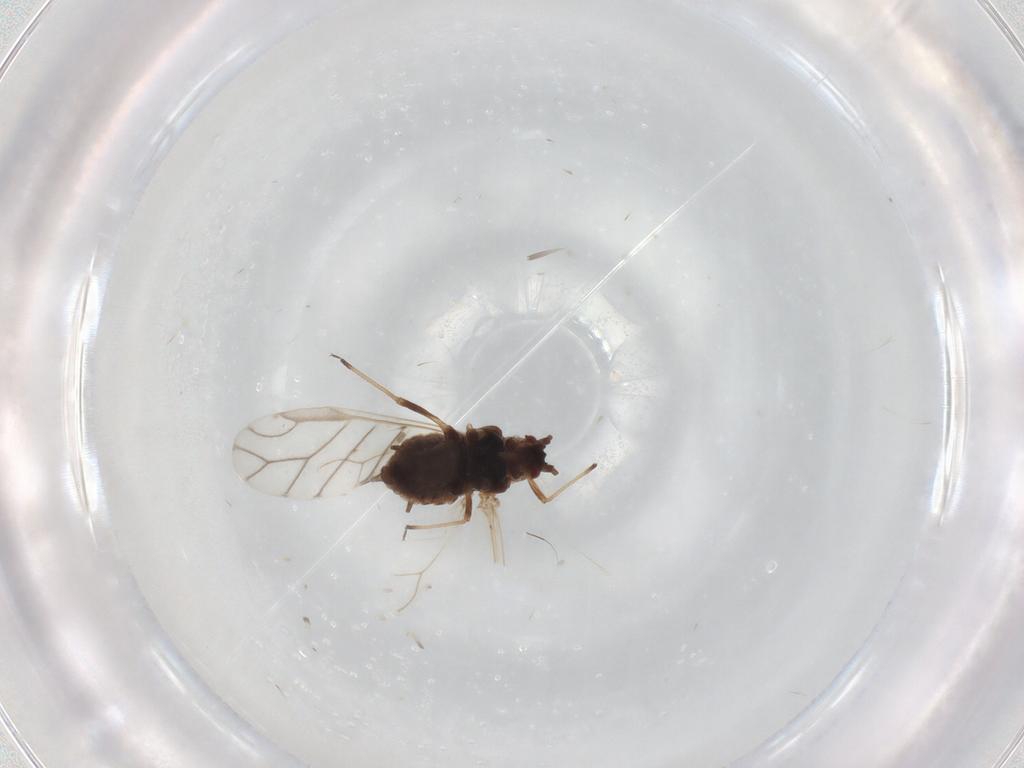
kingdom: Animalia
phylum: Arthropoda
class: Insecta
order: Hemiptera
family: Aphididae
